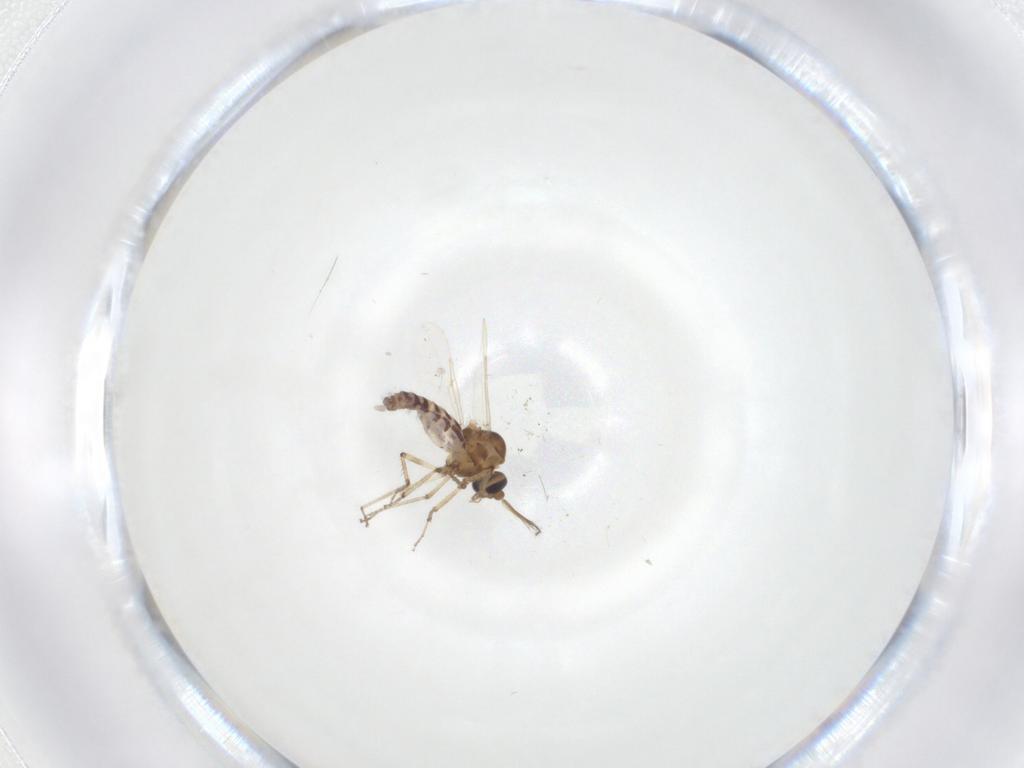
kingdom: Animalia
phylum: Arthropoda
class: Insecta
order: Diptera
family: Ceratopogonidae
